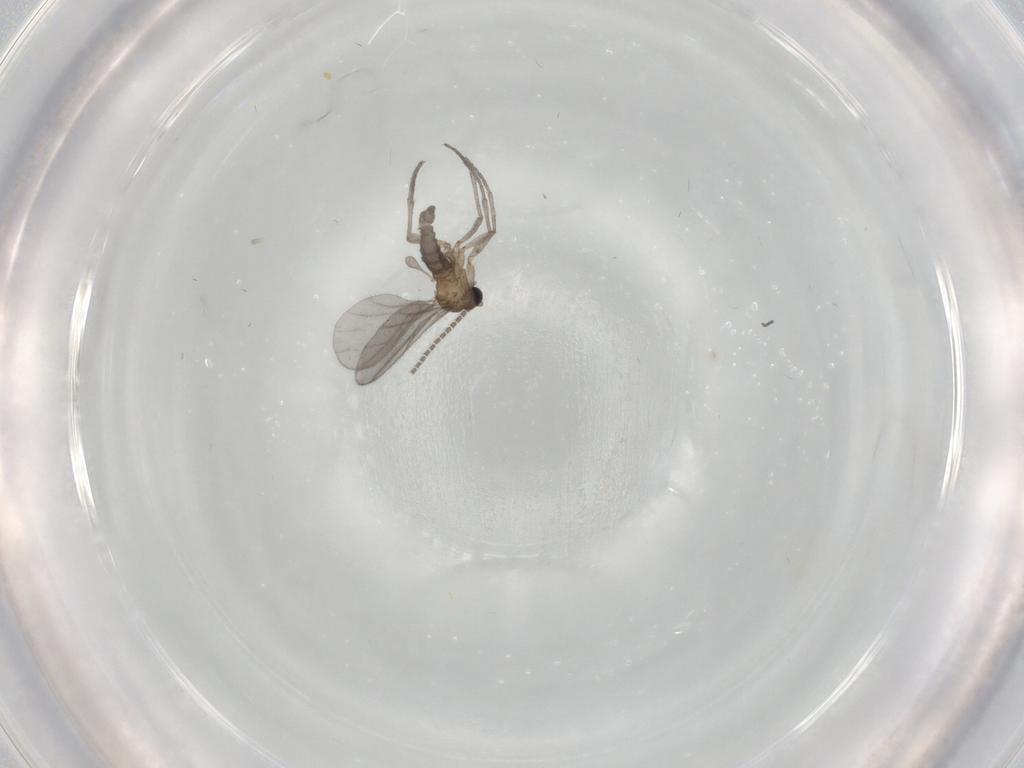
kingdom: Animalia
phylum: Arthropoda
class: Insecta
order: Diptera
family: Sciaridae
